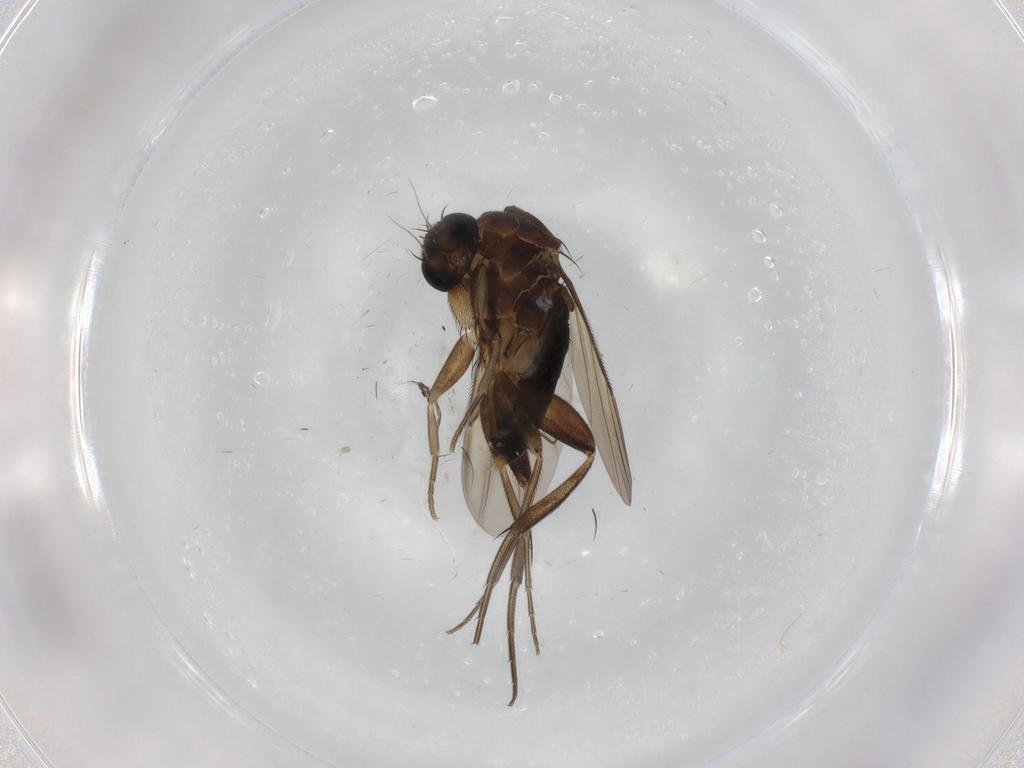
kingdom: Animalia
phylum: Arthropoda
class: Insecta
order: Diptera
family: Phoridae
